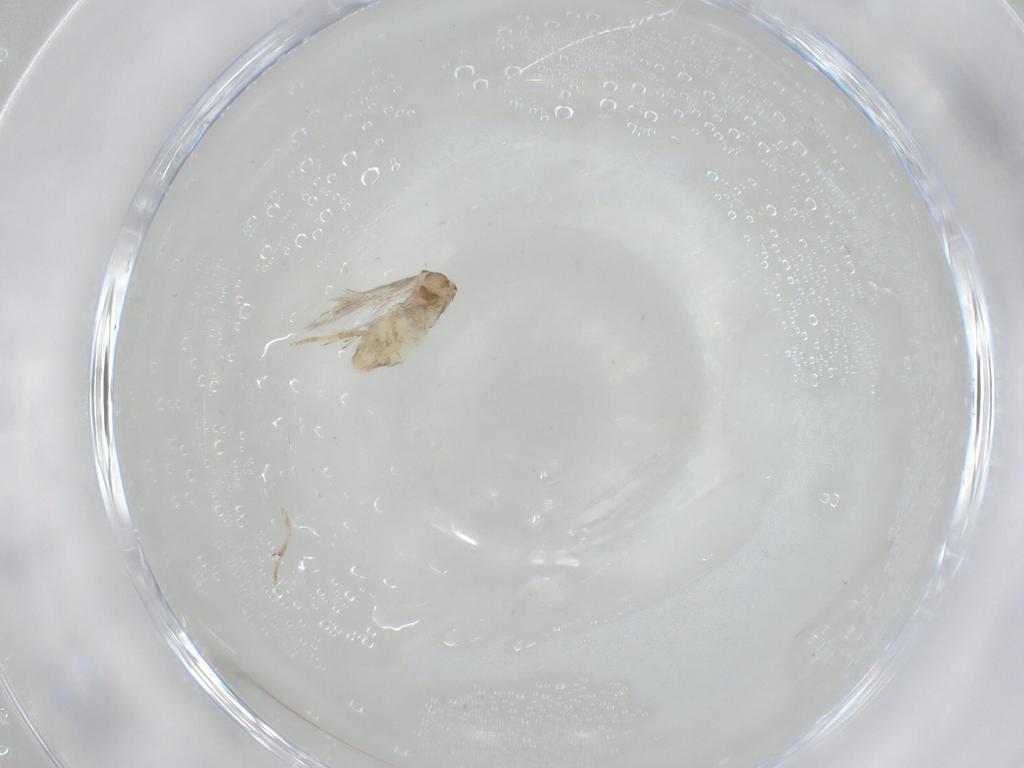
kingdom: Animalia
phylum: Arthropoda
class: Insecta
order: Lepidoptera
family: Nepticulidae
